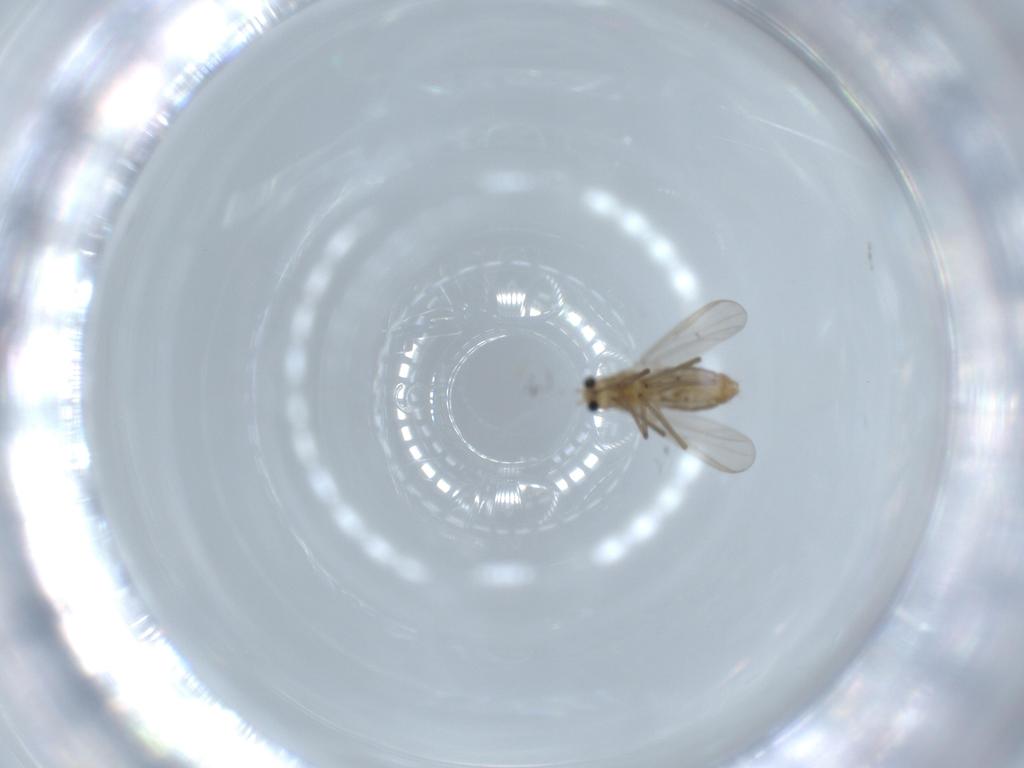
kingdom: Animalia
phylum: Arthropoda
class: Insecta
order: Diptera
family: Chironomidae
